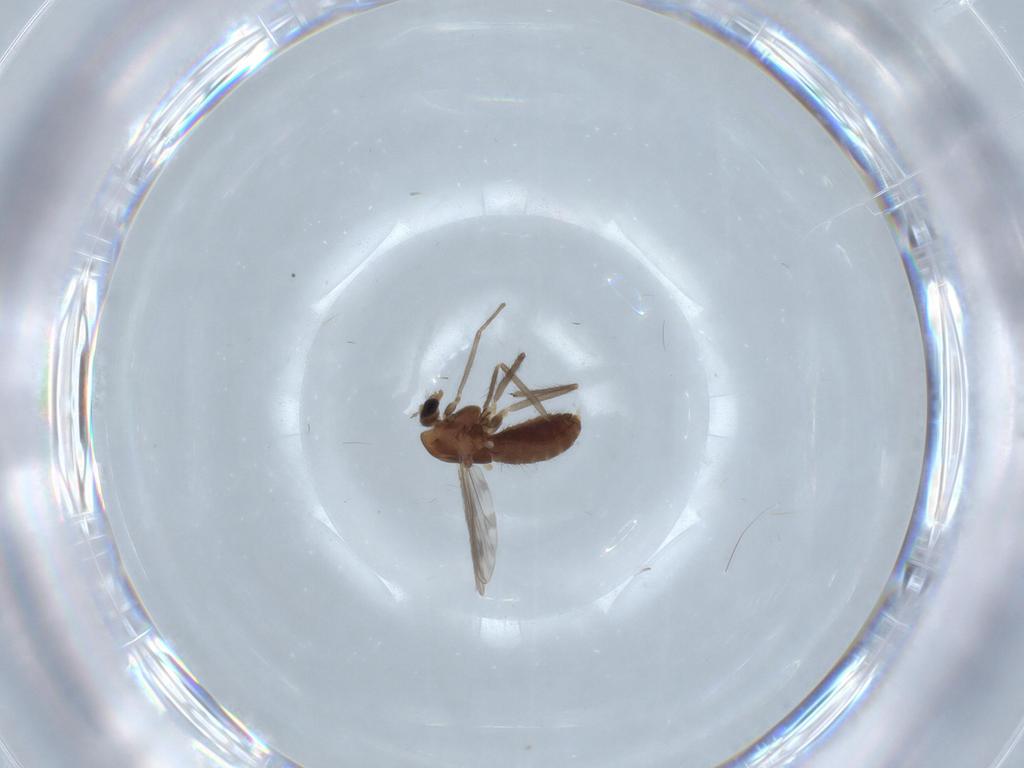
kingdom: Animalia
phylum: Arthropoda
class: Insecta
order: Diptera
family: Chironomidae
